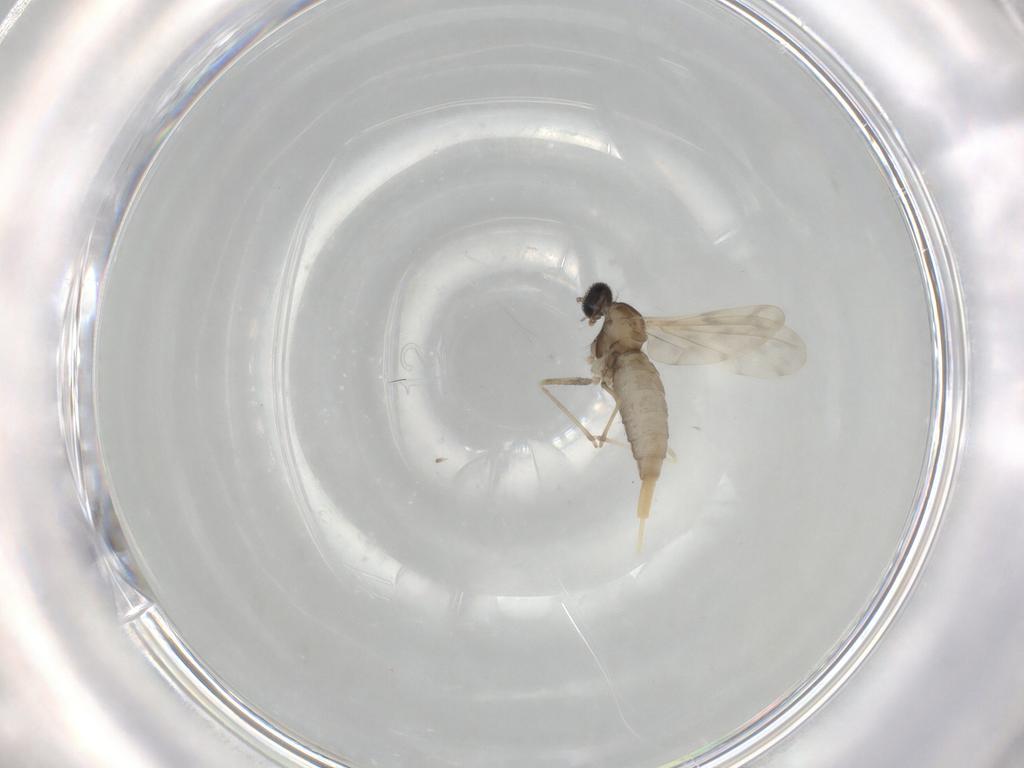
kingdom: Animalia
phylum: Arthropoda
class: Insecta
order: Diptera
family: Cecidomyiidae
